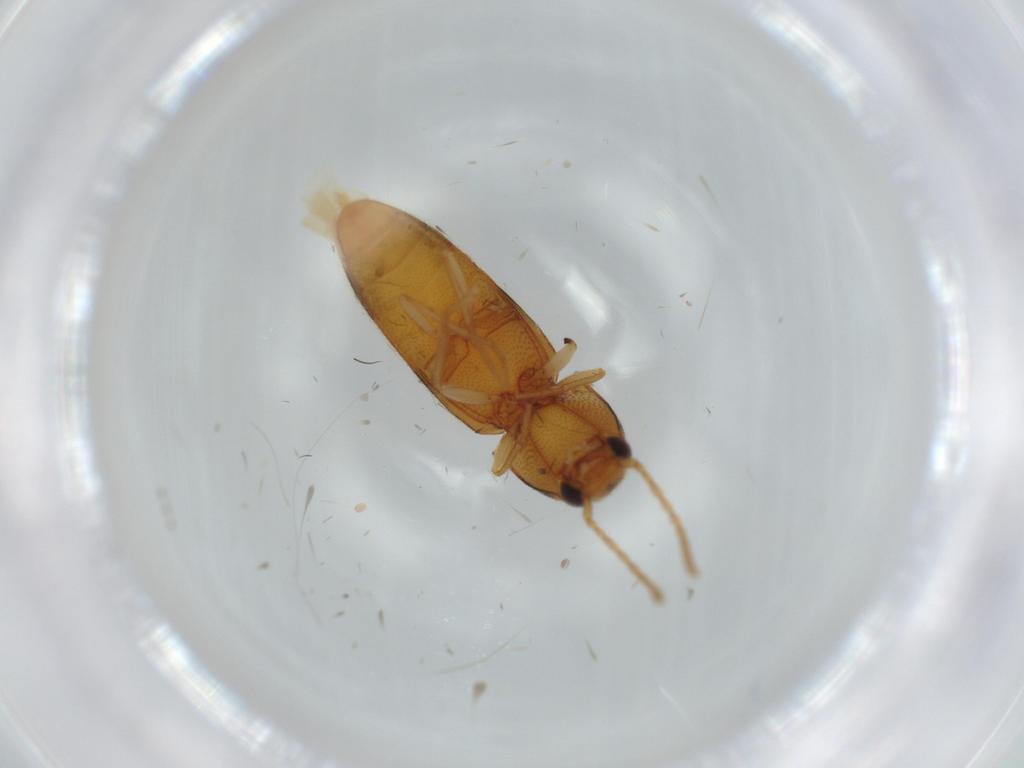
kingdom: Animalia
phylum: Arthropoda
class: Insecta
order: Coleoptera
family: Elateridae
